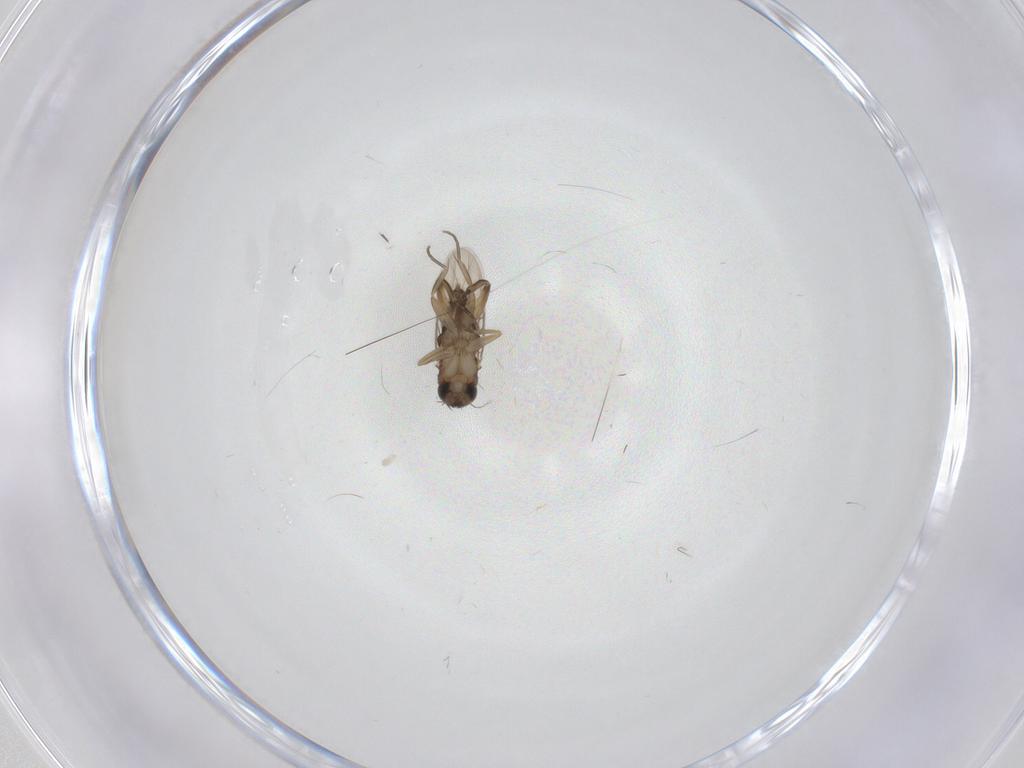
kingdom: Animalia
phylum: Arthropoda
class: Insecta
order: Diptera
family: Phoridae
